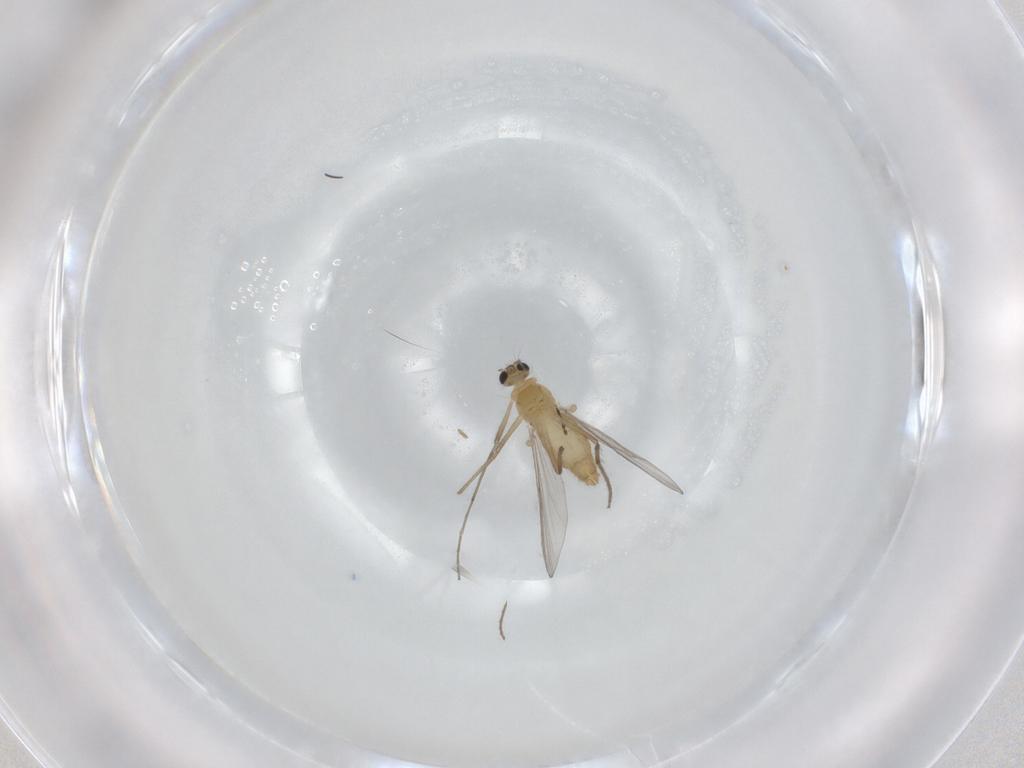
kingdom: Animalia
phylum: Arthropoda
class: Insecta
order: Diptera
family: Chironomidae
